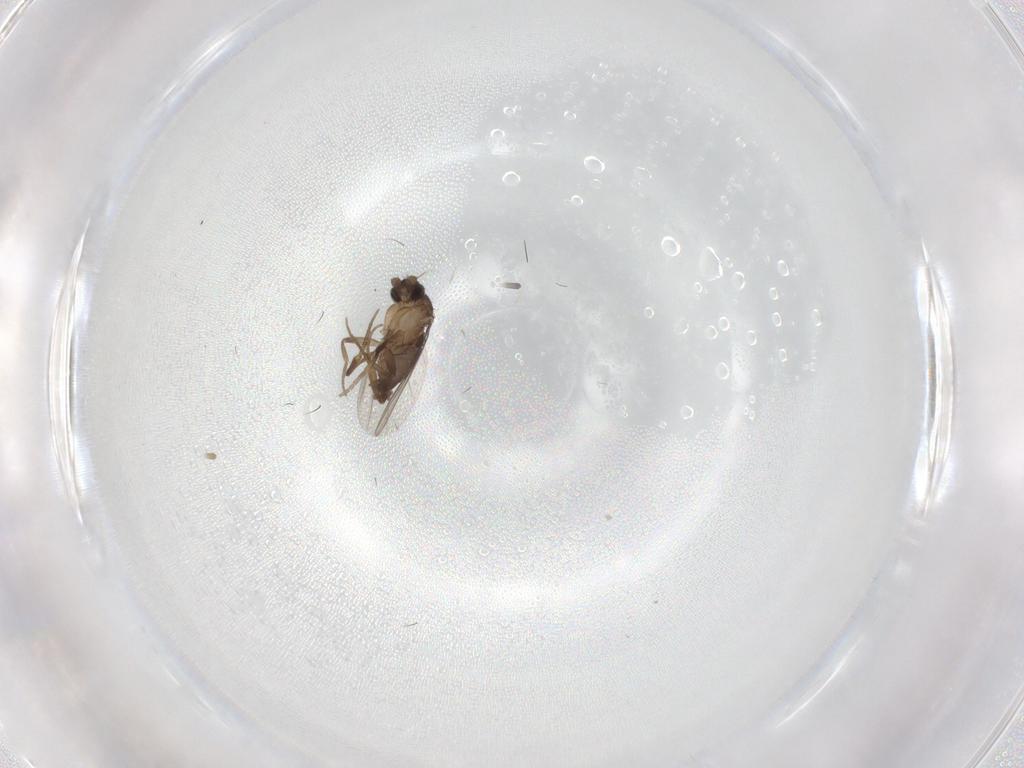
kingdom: Animalia
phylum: Arthropoda
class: Insecta
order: Diptera
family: Phoridae
